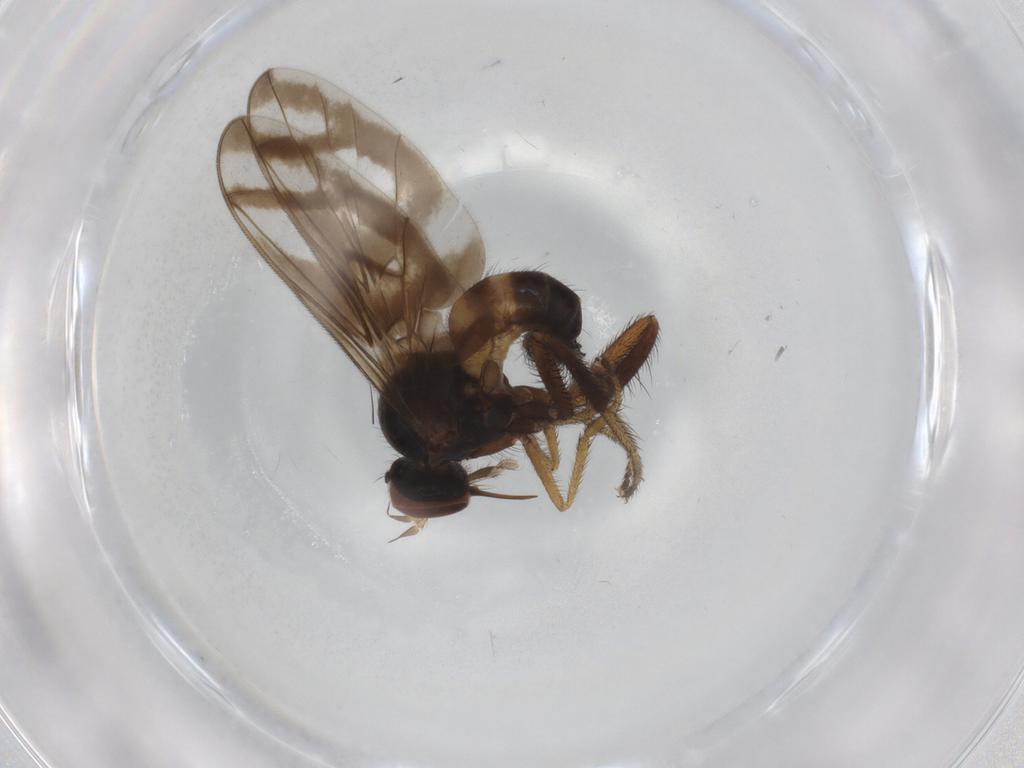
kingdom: Animalia
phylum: Arthropoda
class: Insecta
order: Diptera
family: Empididae
